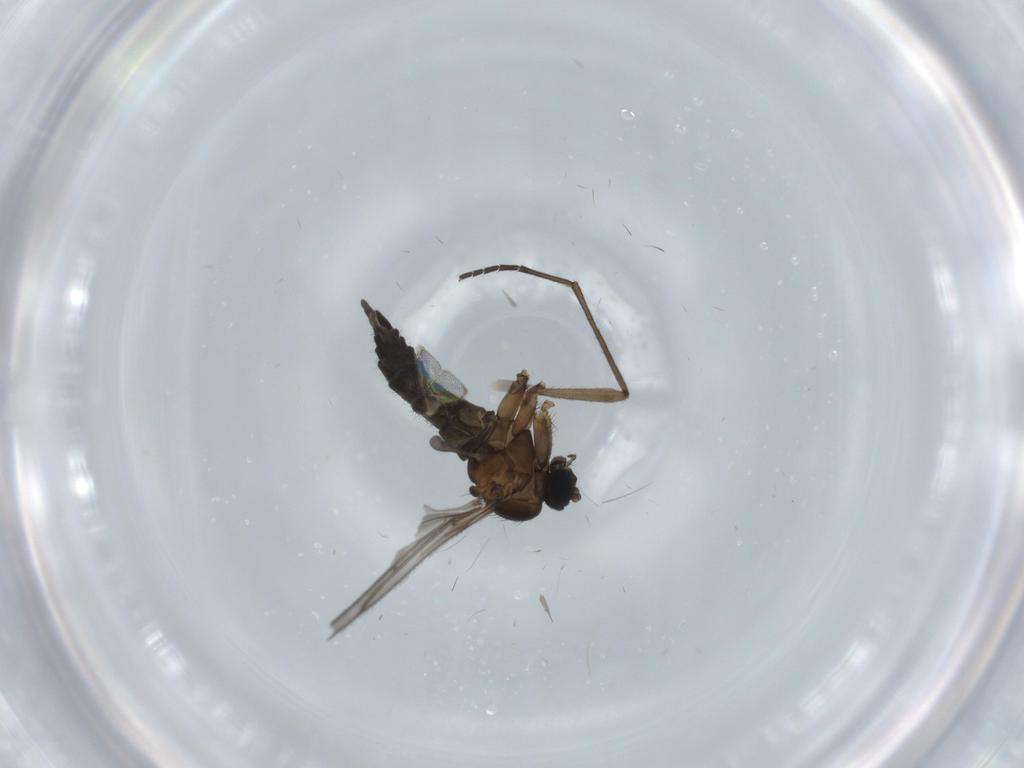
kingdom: Animalia
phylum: Arthropoda
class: Insecta
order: Diptera
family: Sciaridae
